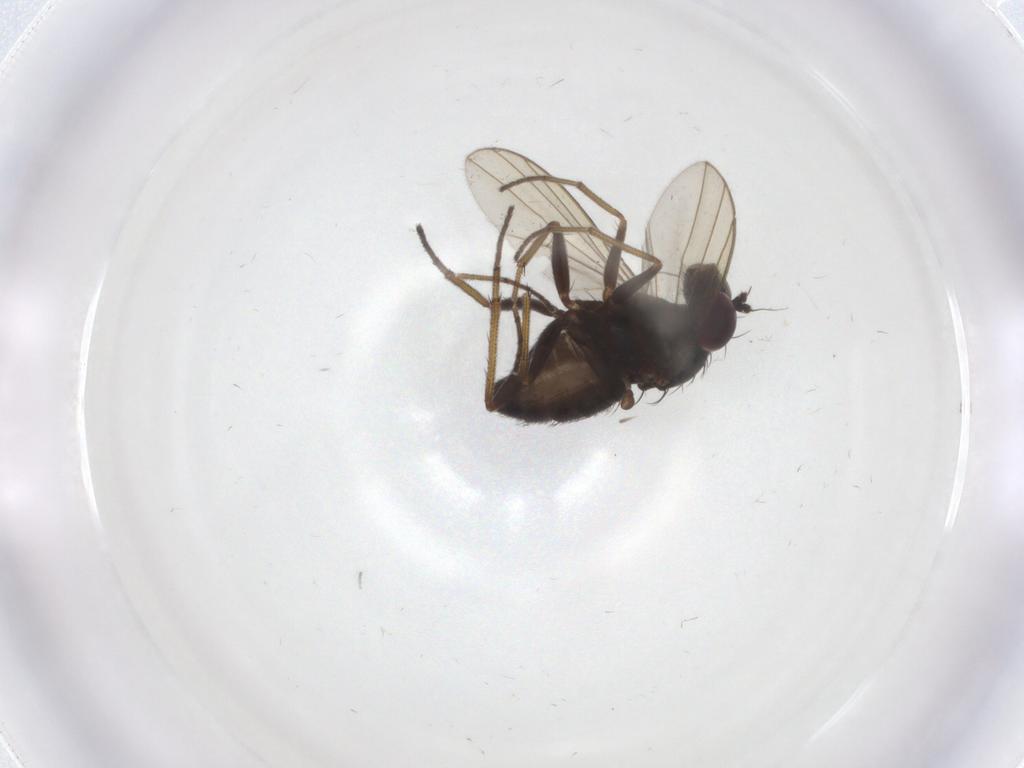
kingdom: Animalia
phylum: Arthropoda
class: Insecta
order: Diptera
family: Dolichopodidae
